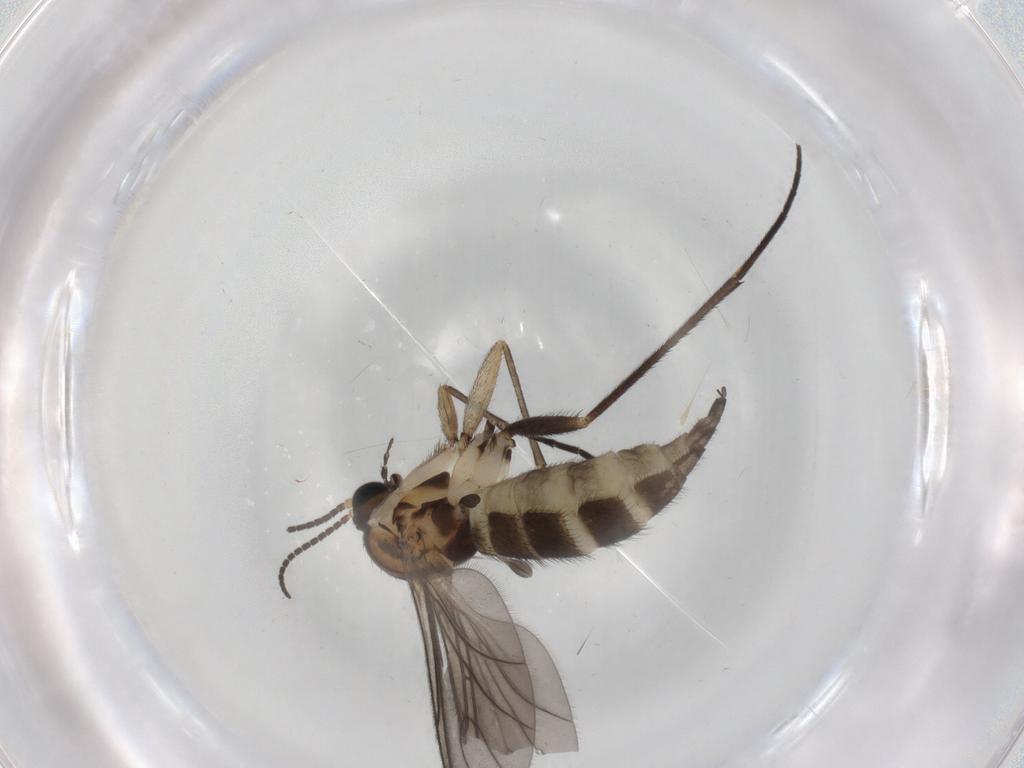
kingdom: Animalia
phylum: Arthropoda
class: Insecta
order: Diptera
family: Sciaridae
